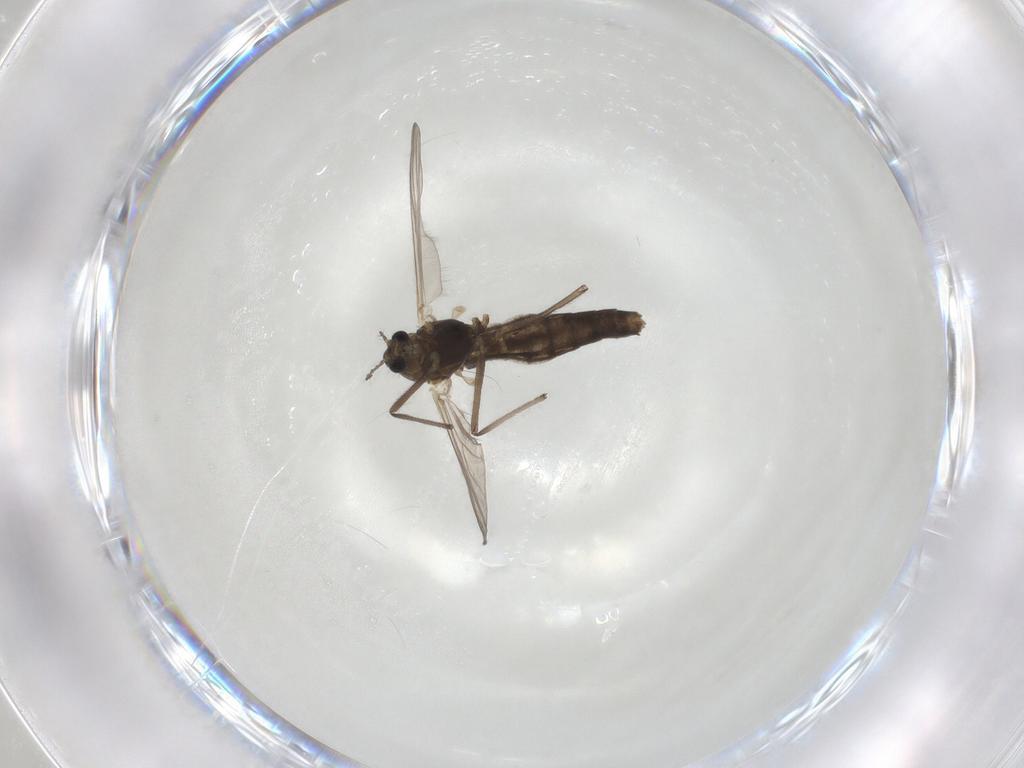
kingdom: Animalia
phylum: Arthropoda
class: Insecta
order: Diptera
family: Chironomidae
